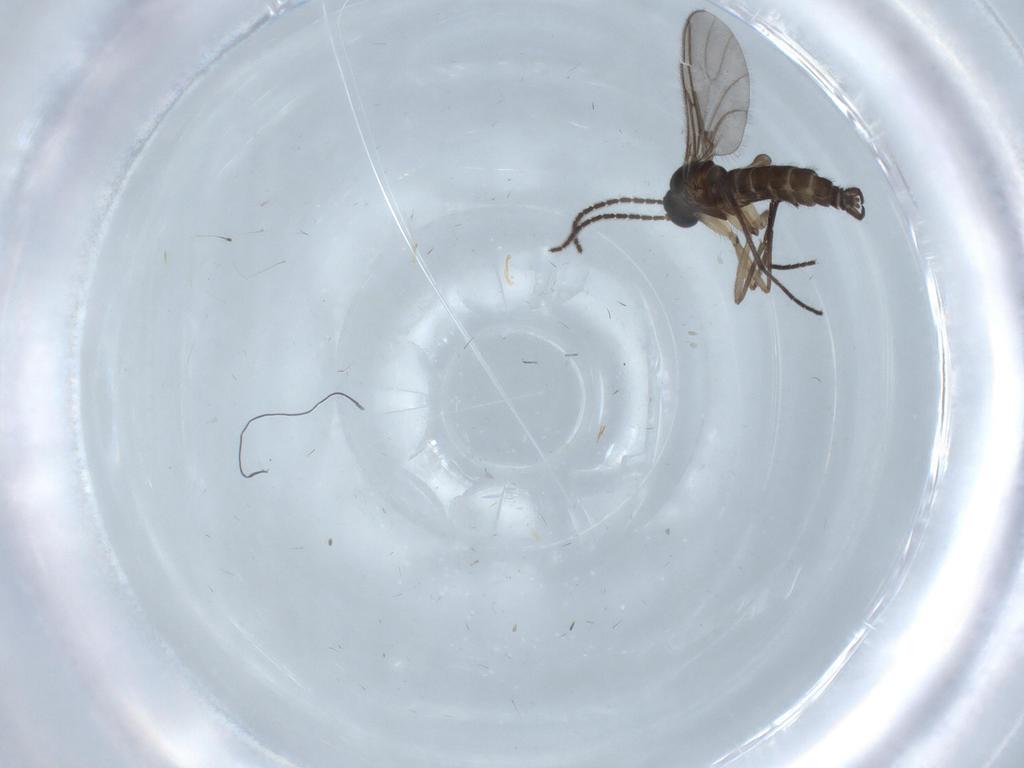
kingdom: Animalia
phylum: Arthropoda
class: Insecta
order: Diptera
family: Sciaridae
